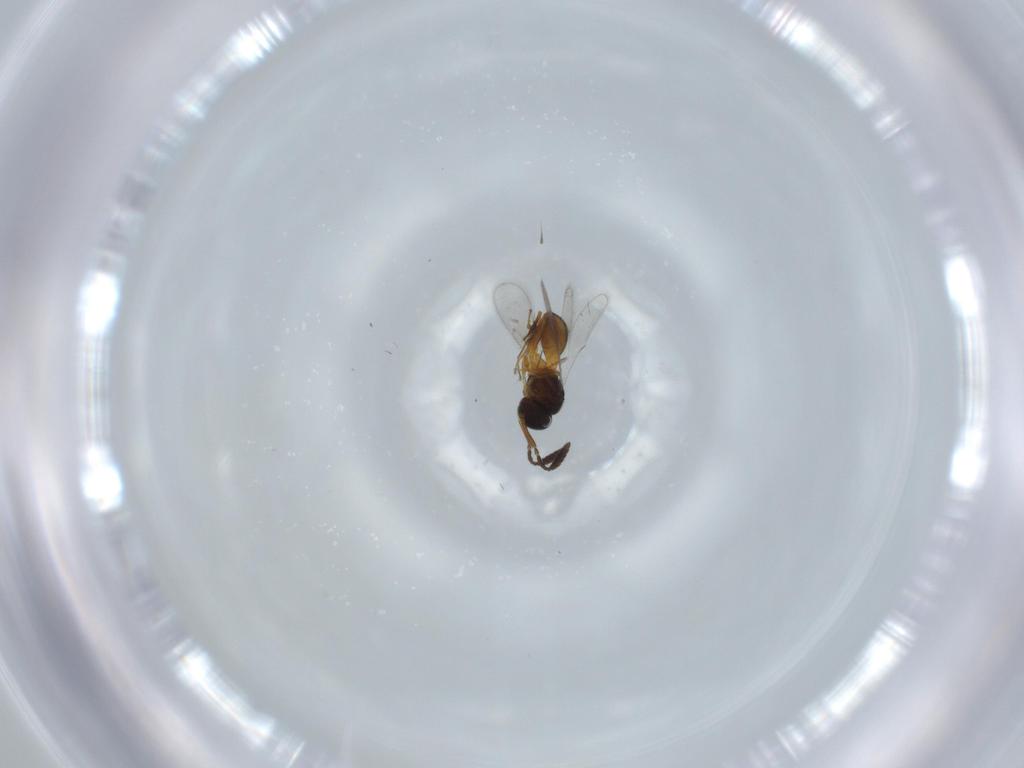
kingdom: Animalia
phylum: Arthropoda
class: Insecta
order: Hymenoptera
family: Scelionidae
